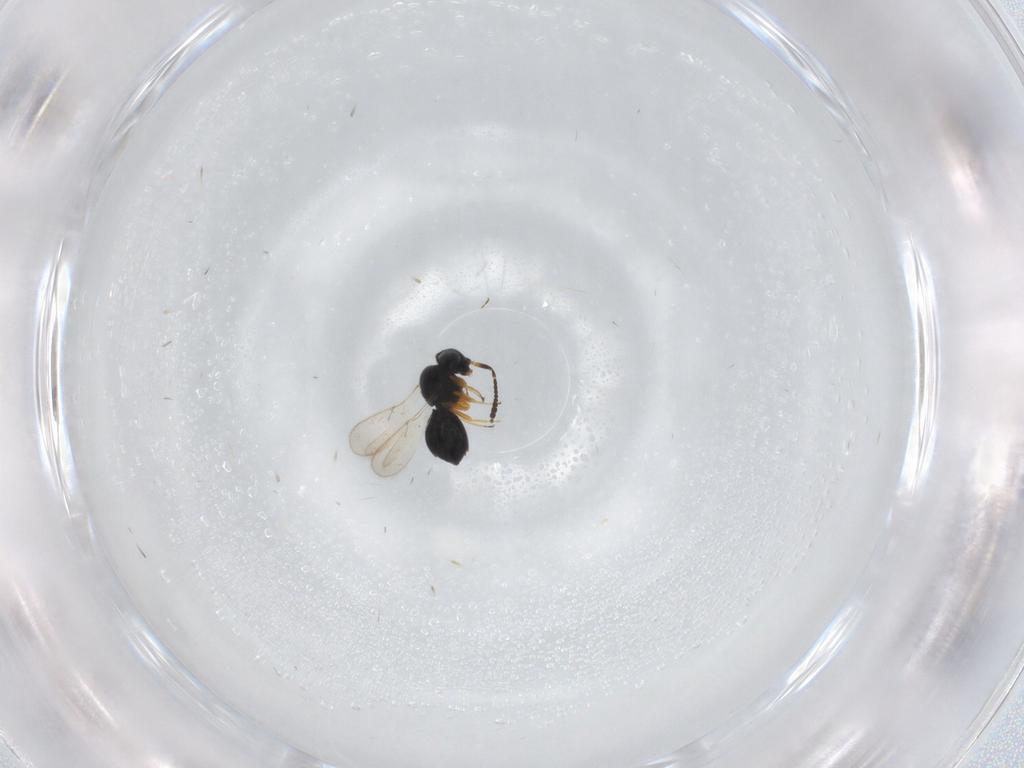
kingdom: Animalia
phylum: Arthropoda
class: Insecta
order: Hymenoptera
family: Scelionidae
